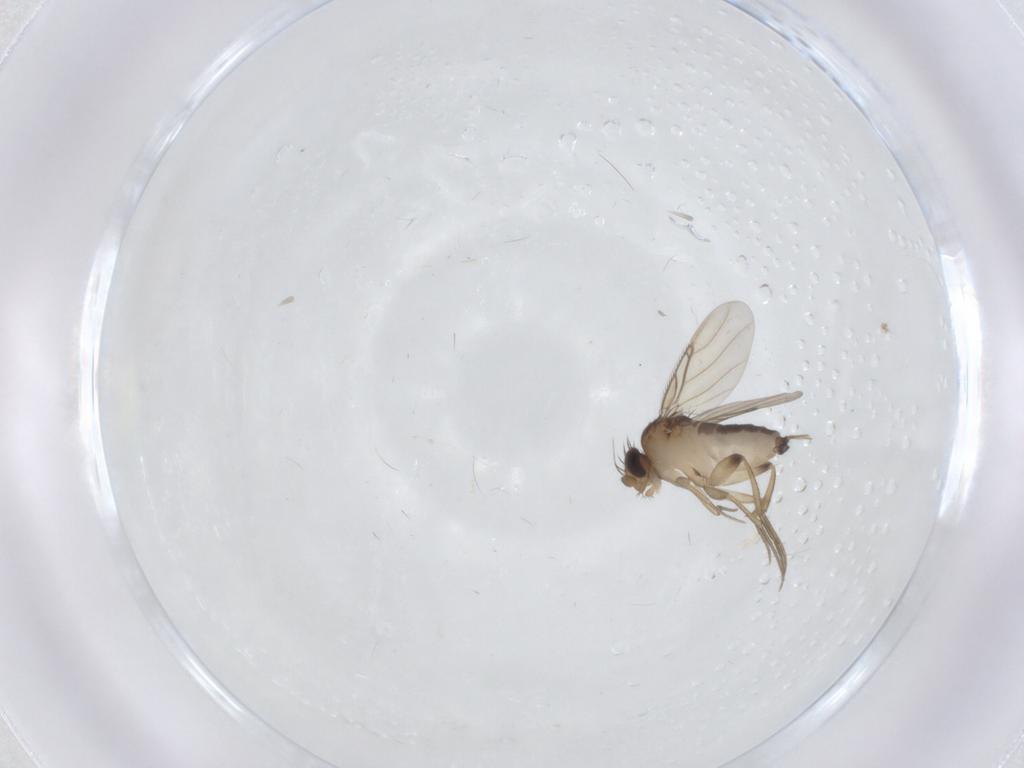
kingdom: Animalia
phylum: Arthropoda
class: Insecta
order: Diptera
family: Phoridae
